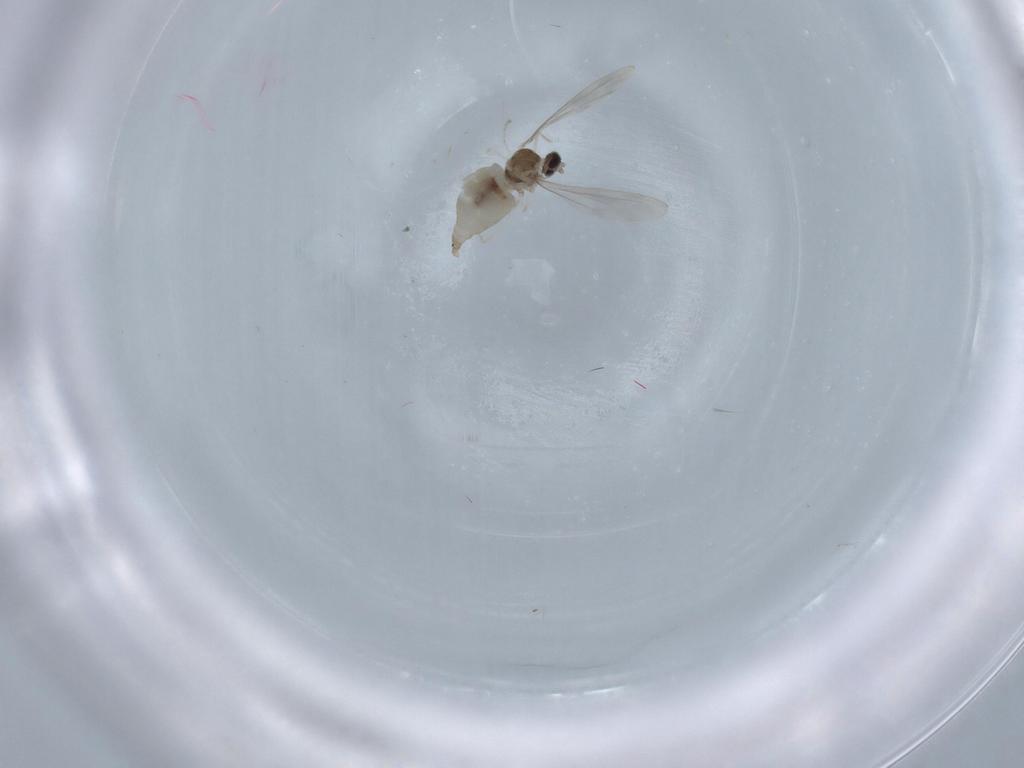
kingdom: Animalia
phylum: Arthropoda
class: Insecta
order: Diptera
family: Cecidomyiidae
